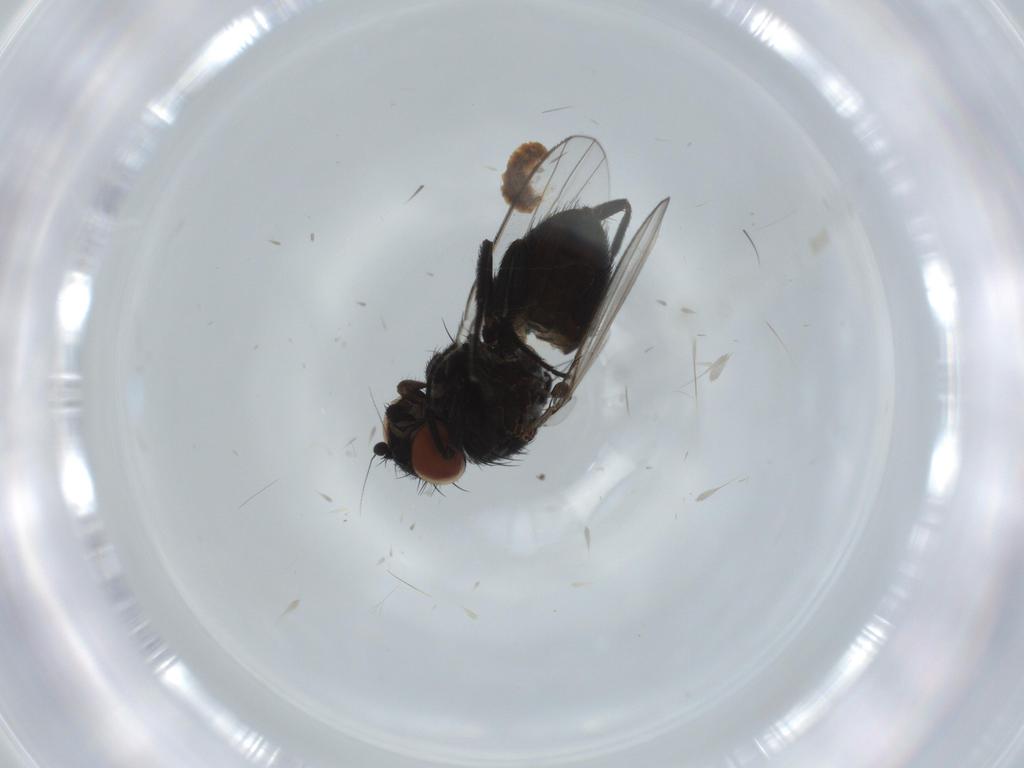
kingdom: Animalia
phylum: Arthropoda
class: Insecta
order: Diptera
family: Milichiidae
